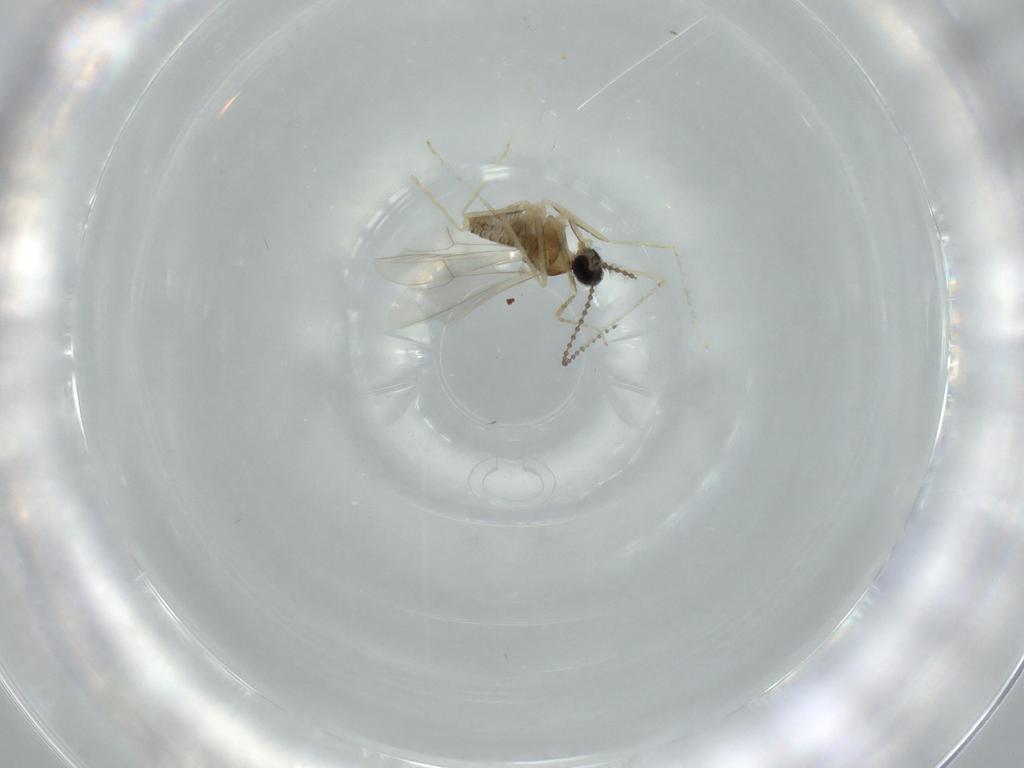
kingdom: Animalia
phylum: Arthropoda
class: Insecta
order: Diptera
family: Cecidomyiidae
